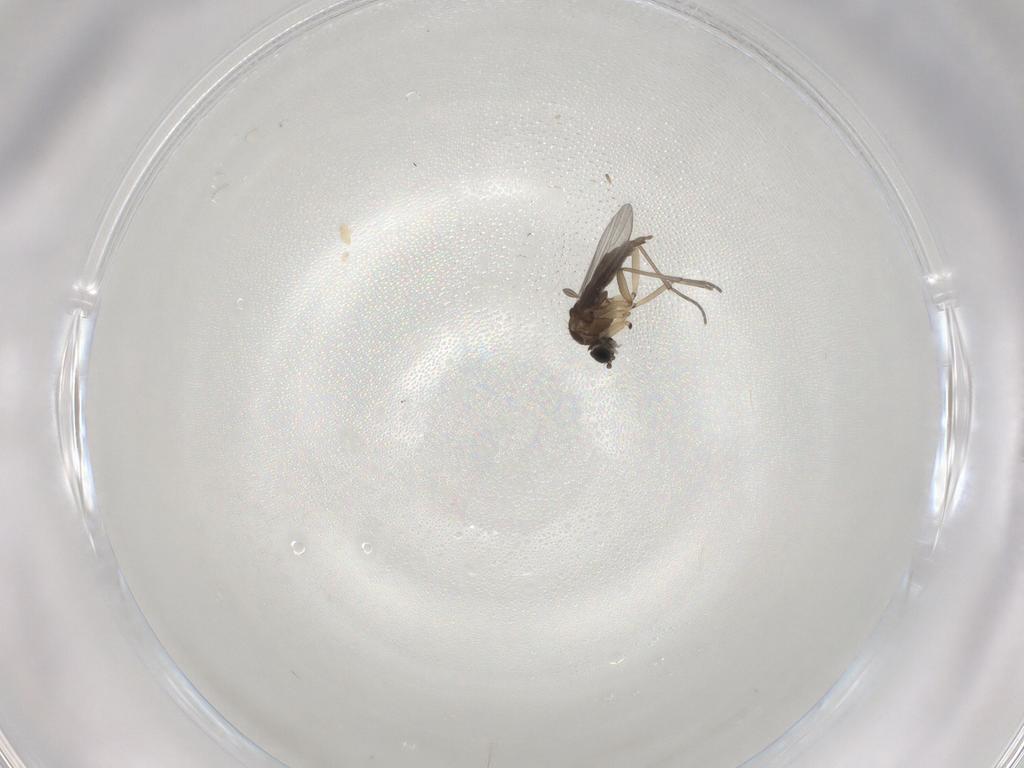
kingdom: Animalia
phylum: Arthropoda
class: Insecta
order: Diptera
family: Sciaridae
